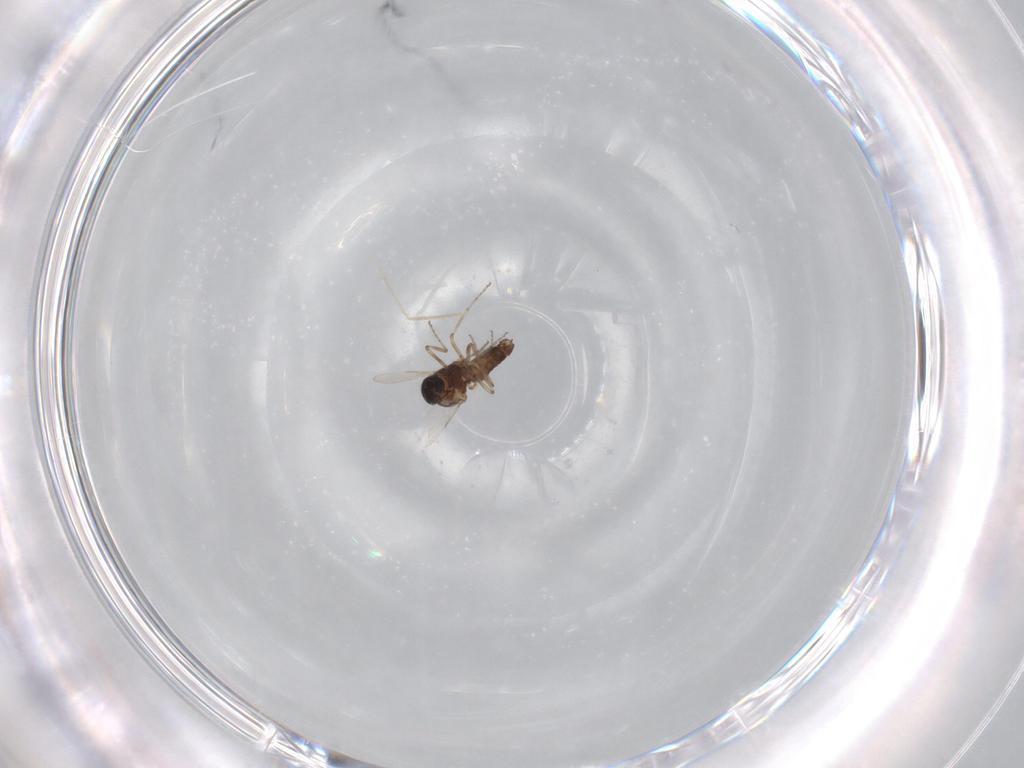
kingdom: Animalia
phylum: Arthropoda
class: Insecta
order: Diptera
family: Ceratopogonidae
